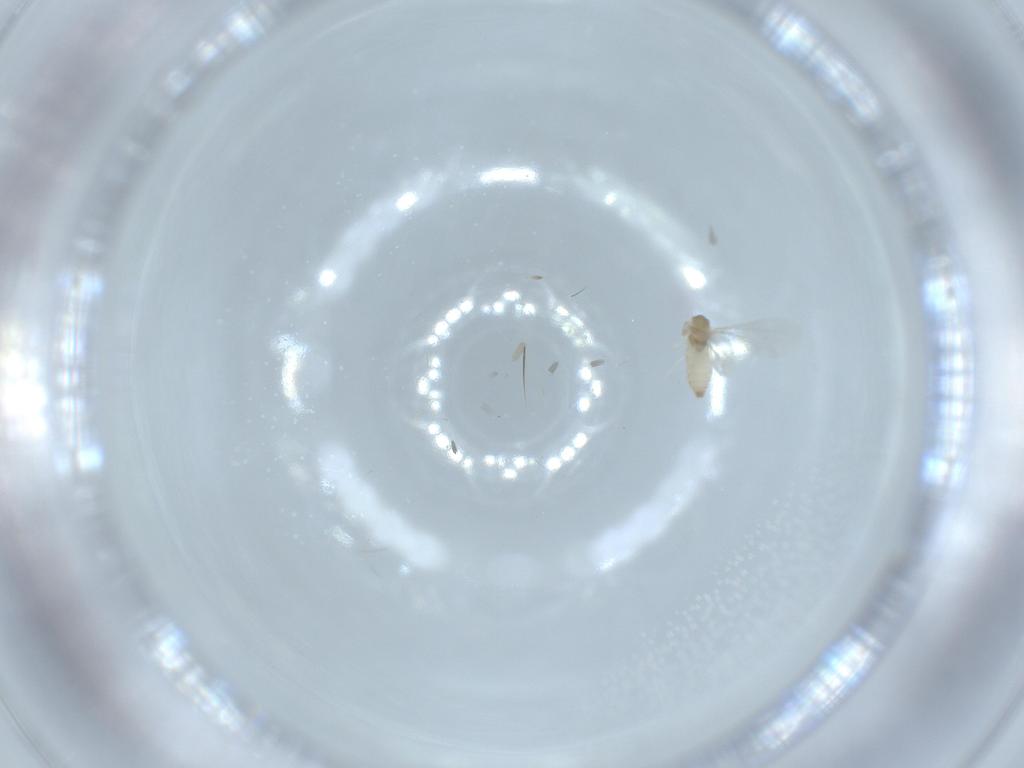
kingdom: Animalia
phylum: Arthropoda
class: Insecta
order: Diptera
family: Cecidomyiidae
